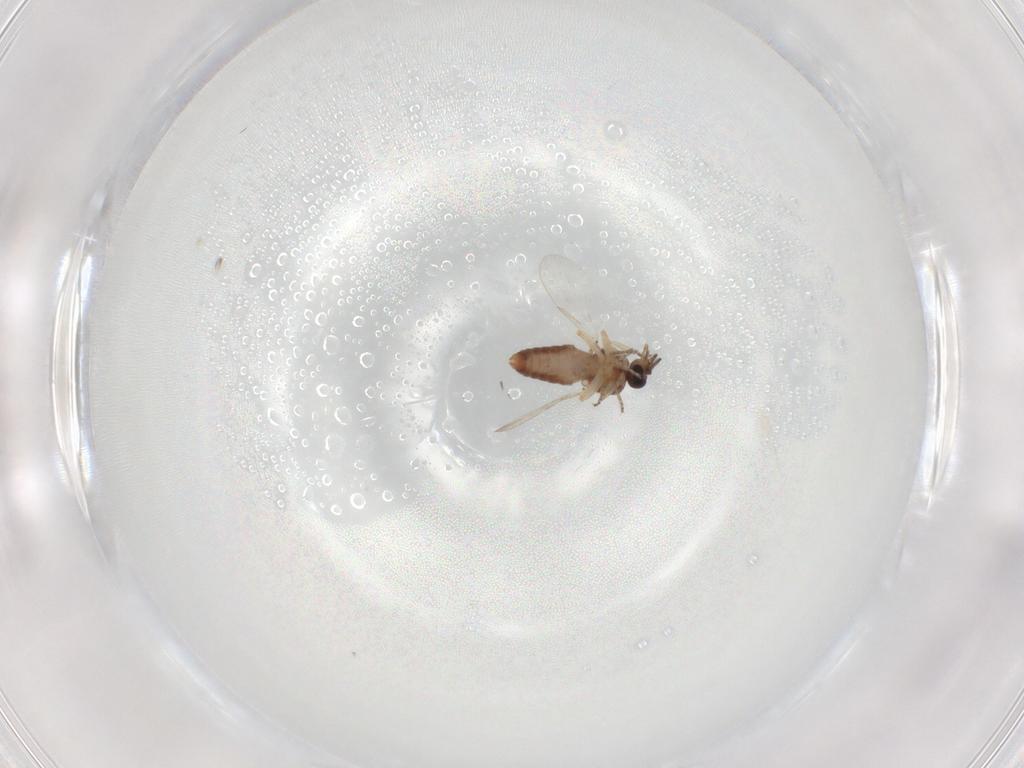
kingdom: Animalia
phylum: Arthropoda
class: Insecta
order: Diptera
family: Ceratopogonidae
